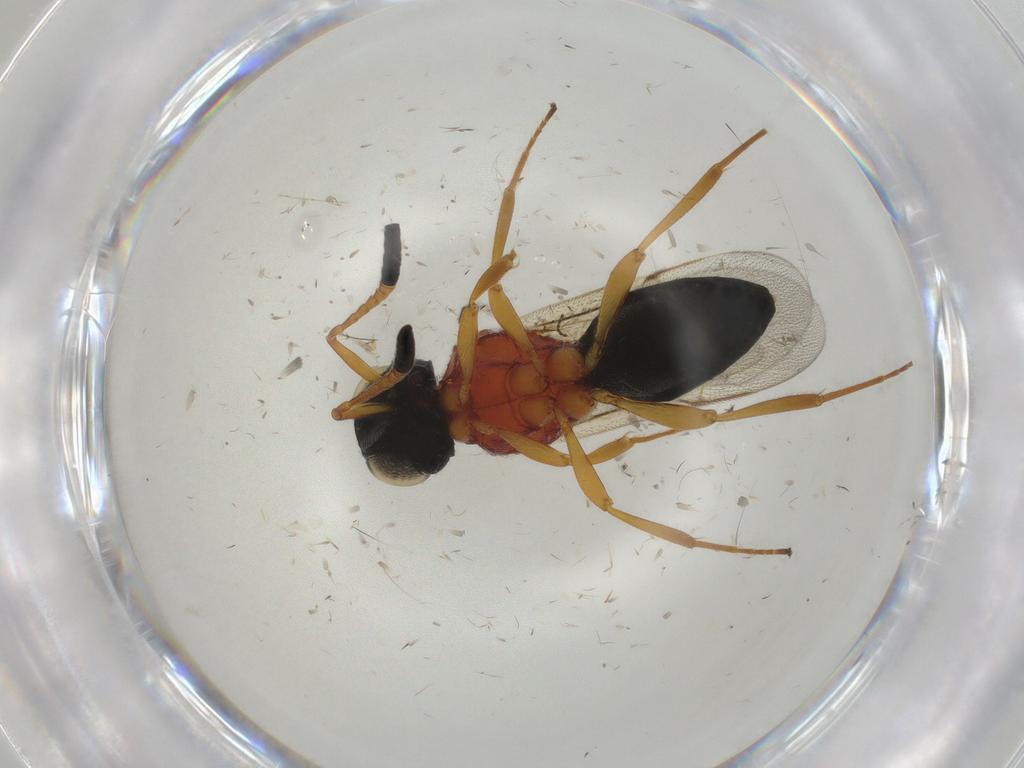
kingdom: Animalia
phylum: Arthropoda
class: Insecta
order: Hymenoptera
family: Scelionidae
